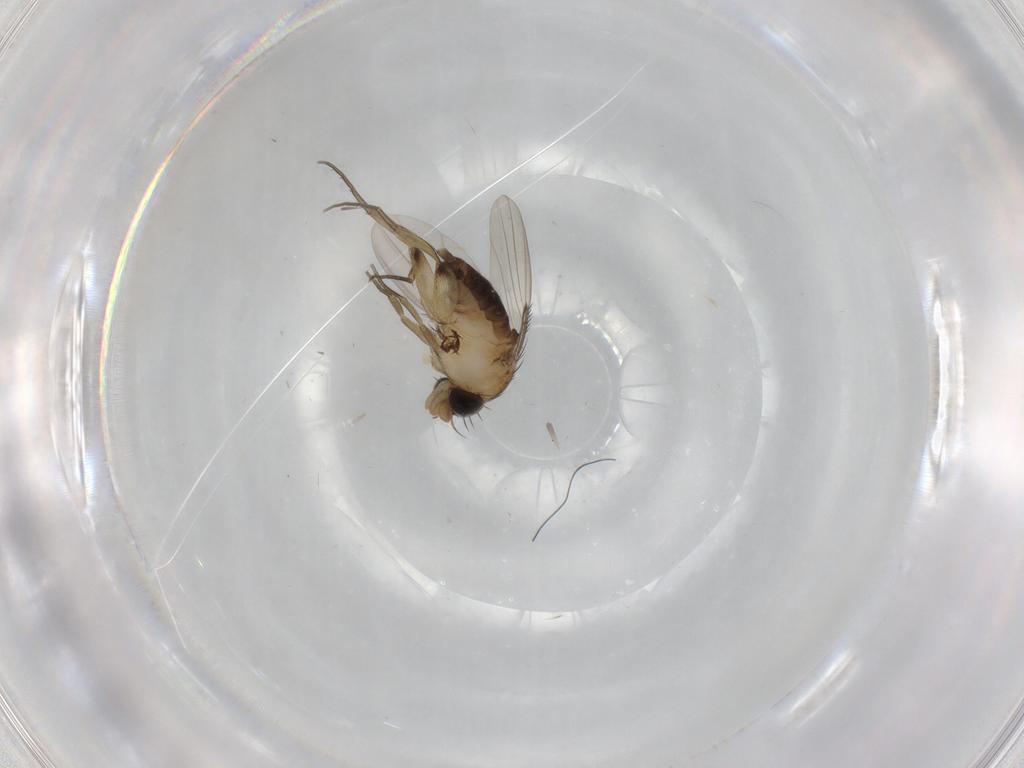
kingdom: Animalia
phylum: Arthropoda
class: Insecta
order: Diptera
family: Phoridae
